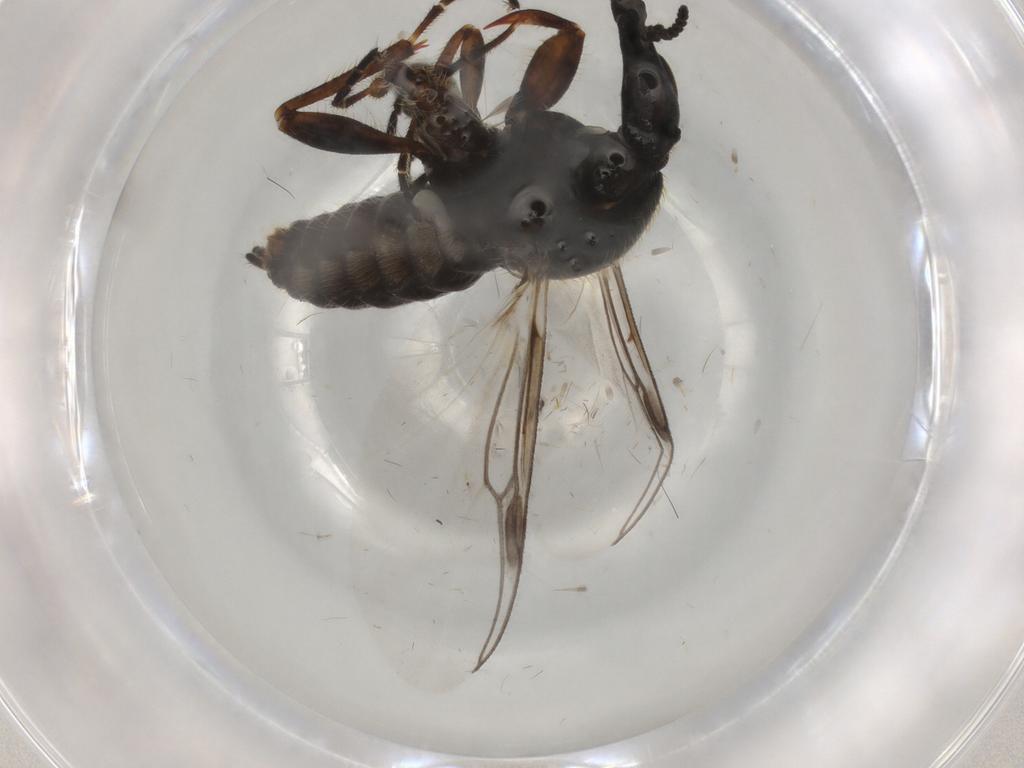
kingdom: Animalia
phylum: Arthropoda
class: Insecta
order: Diptera
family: Bibionidae
